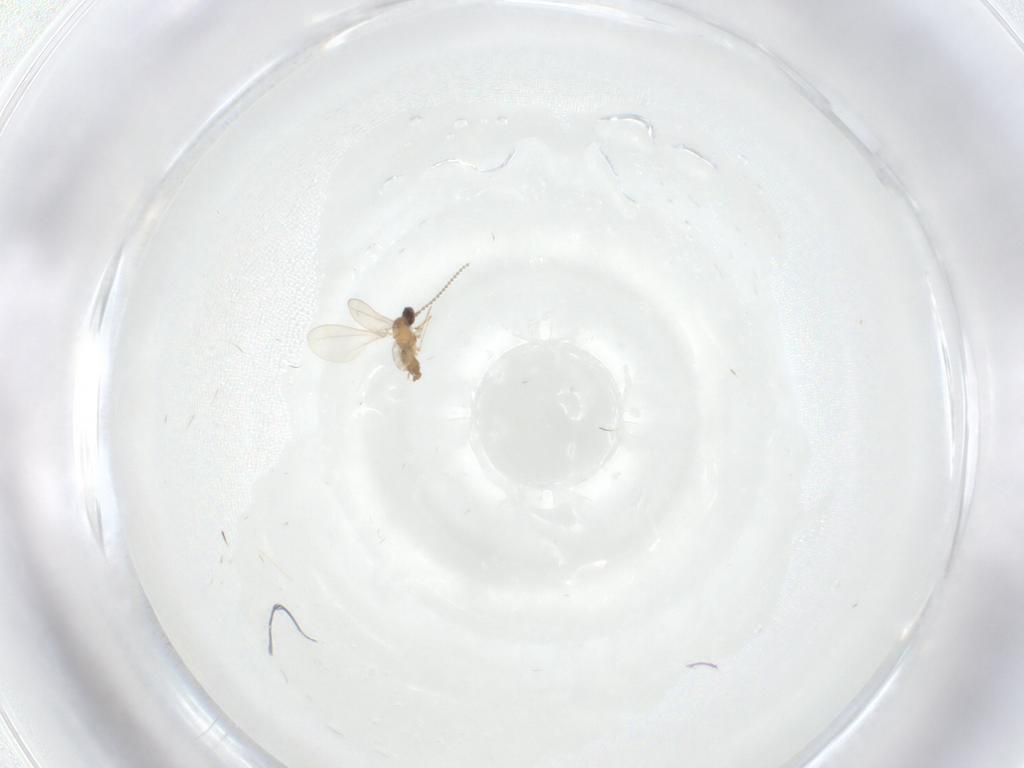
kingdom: Animalia
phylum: Arthropoda
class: Insecta
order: Diptera
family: Chironomidae
